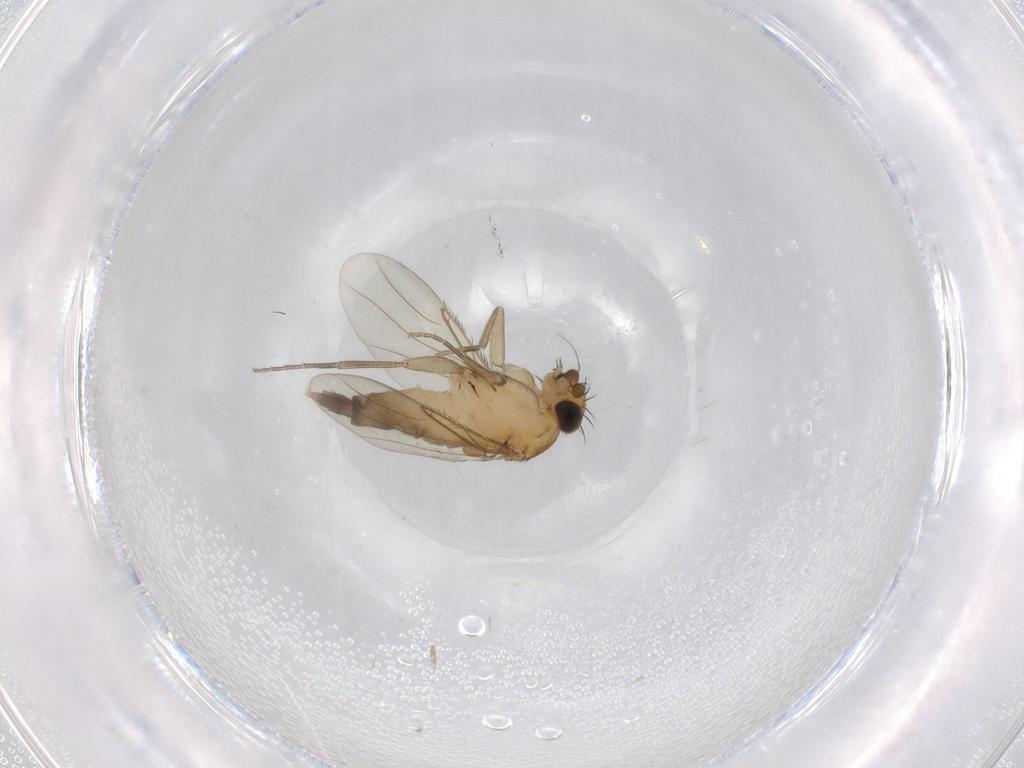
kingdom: Animalia
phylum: Arthropoda
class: Insecta
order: Diptera
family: Phoridae
